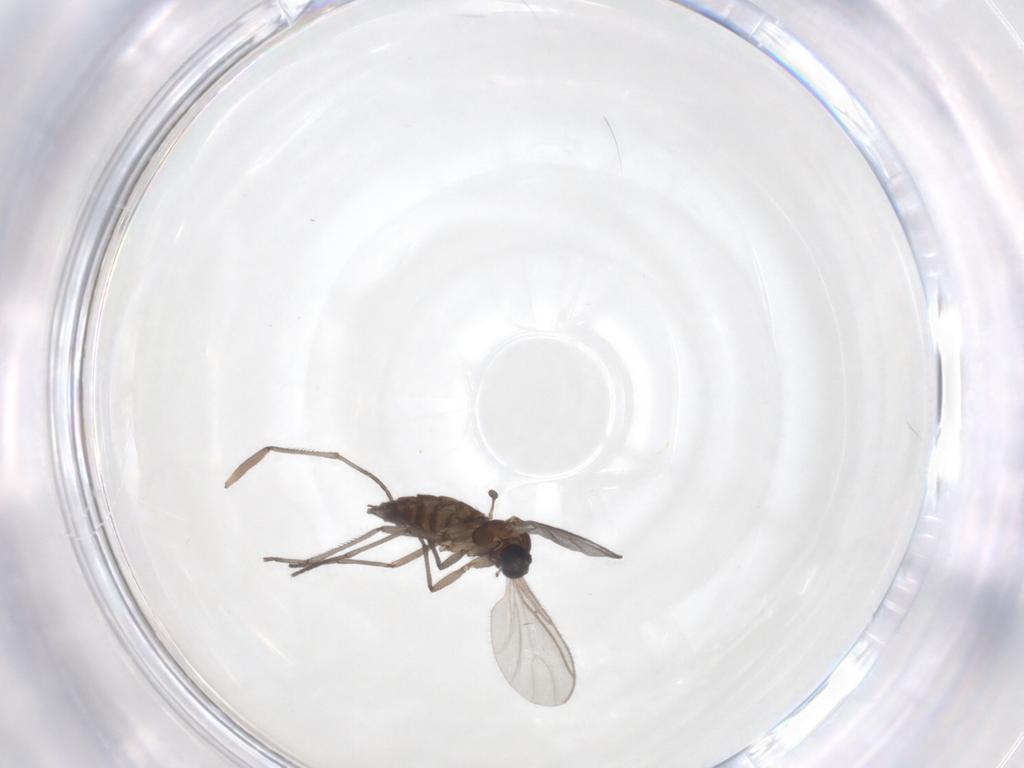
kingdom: Animalia
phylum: Arthropoda
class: Insecta
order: Diptera
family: Sciaridae
